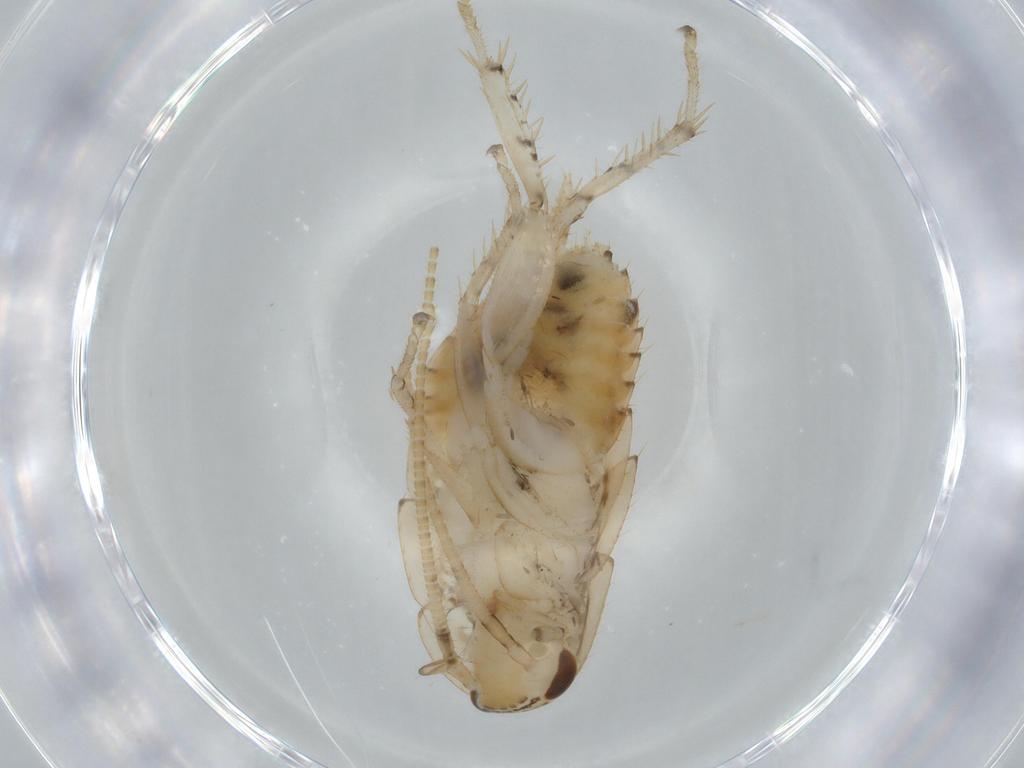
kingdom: Animalia
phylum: Arthropoda
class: Insecta
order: Blattodea
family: Ectobiidae
